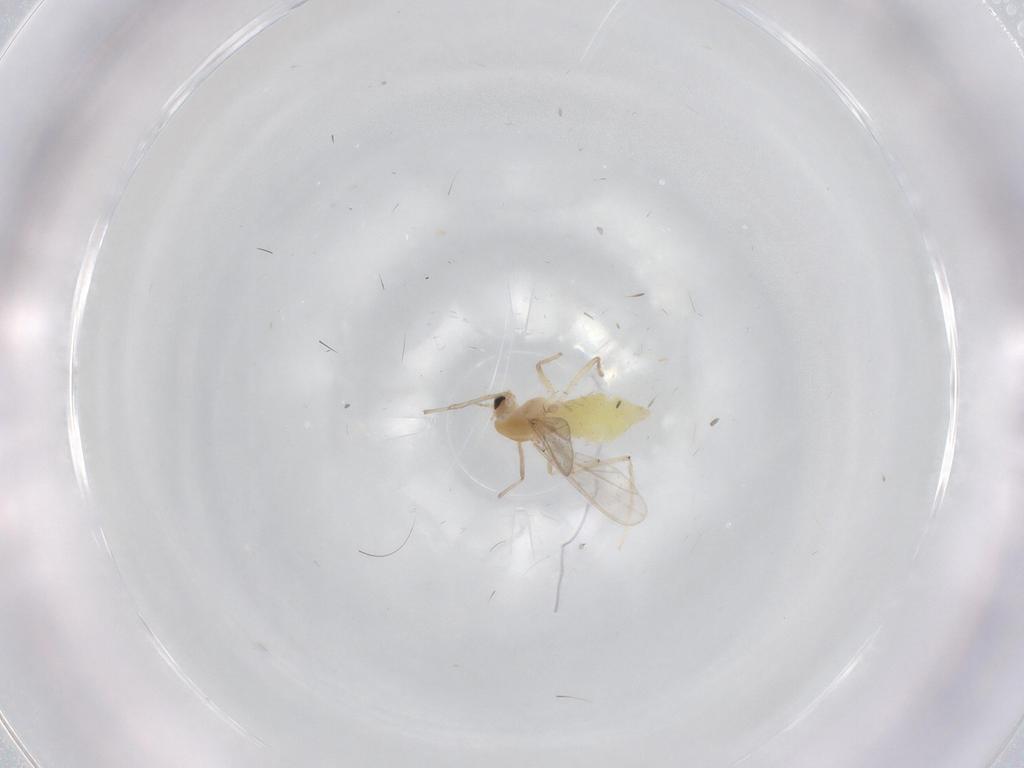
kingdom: Animalia
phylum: Arthropoda
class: Insecta
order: Diptera
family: Chironomidae
